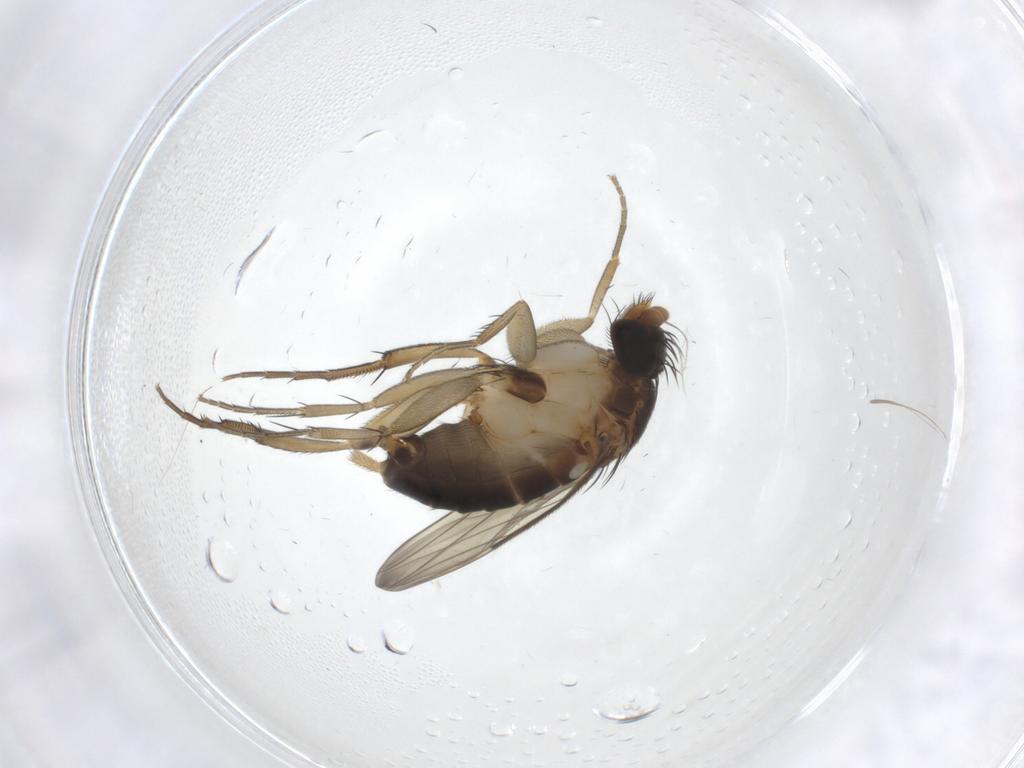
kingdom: Animalia
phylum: Arthropoda
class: Insecta
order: Diptera
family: Phoridae
